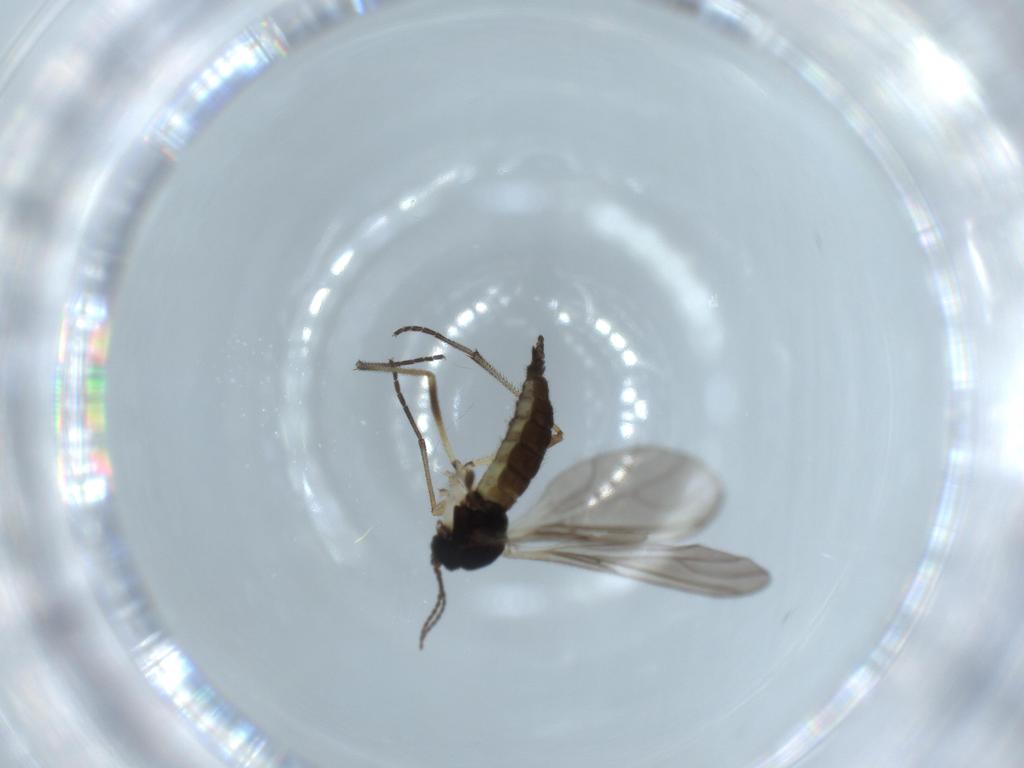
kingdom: Animalia
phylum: Arthropoda
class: Insecta
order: Diptera
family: Sciaridae
